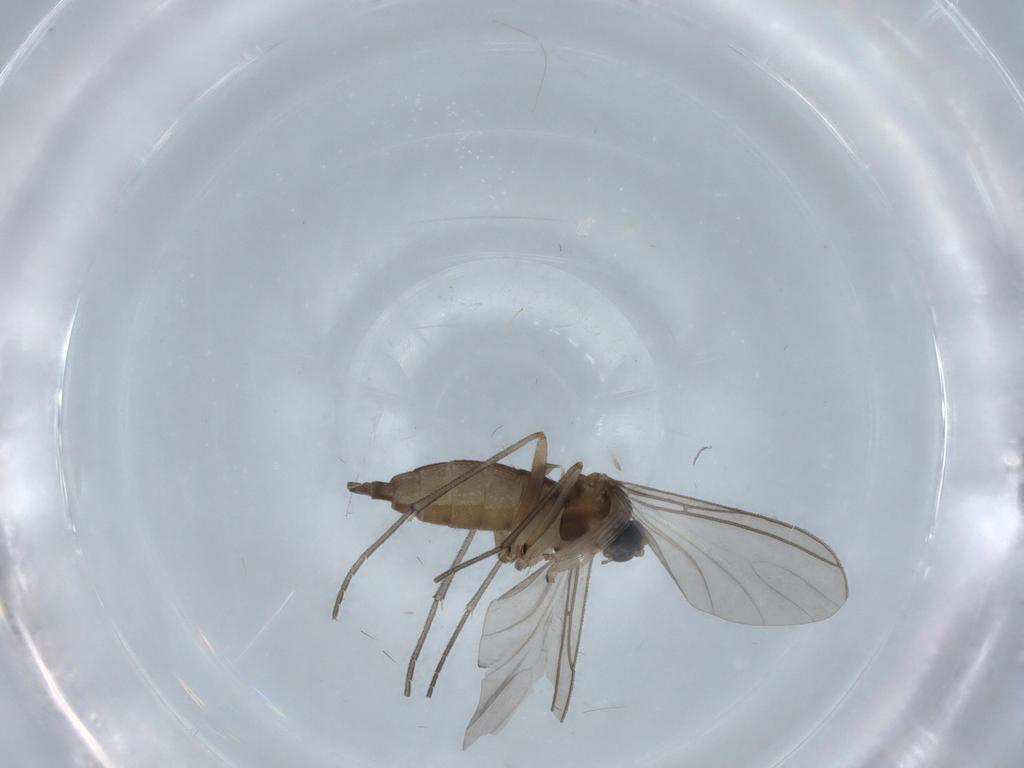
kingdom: Animalia
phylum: Arthropoda
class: Insecta
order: Diptera
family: Sciaridae
